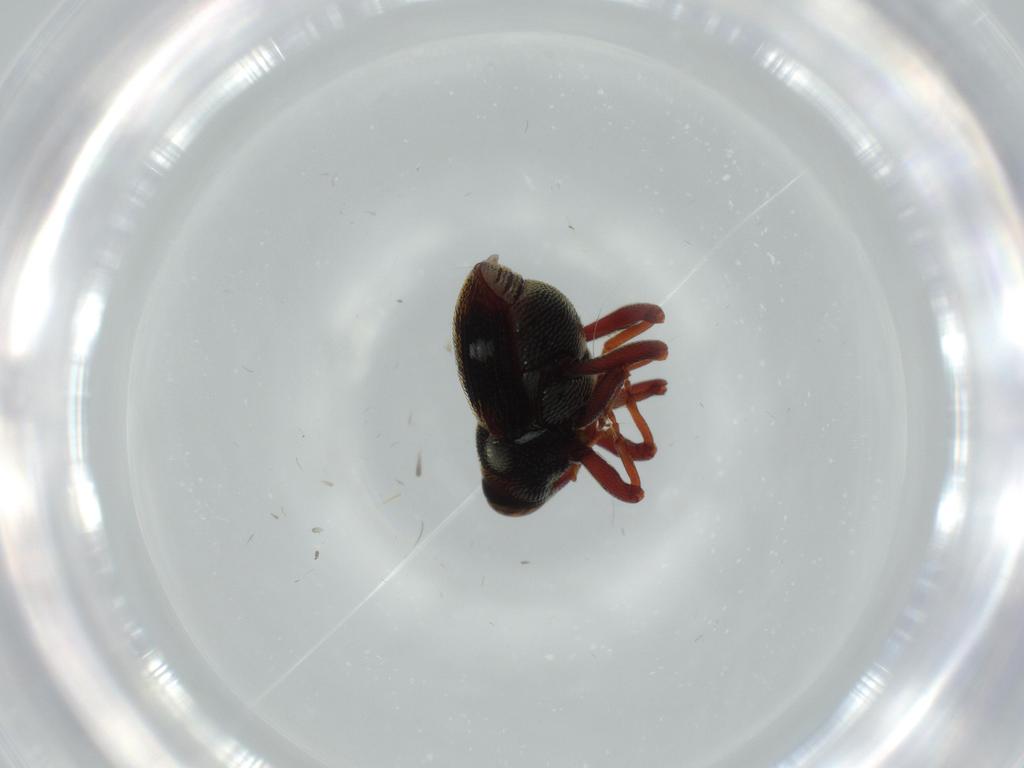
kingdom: Animalia
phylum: Arthropoda
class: Insecta
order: Coleoptera
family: Chrysomelidae
